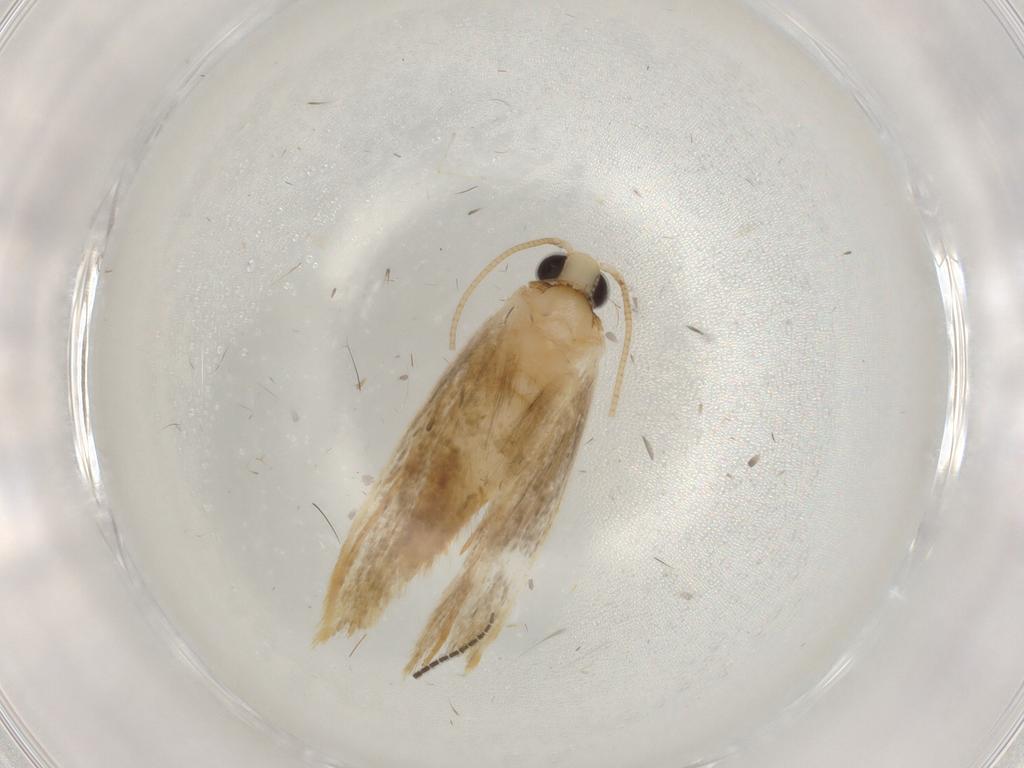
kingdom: Animalia
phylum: Arthropoda
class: Insecta
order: Lepidoptera
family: Tineidae
